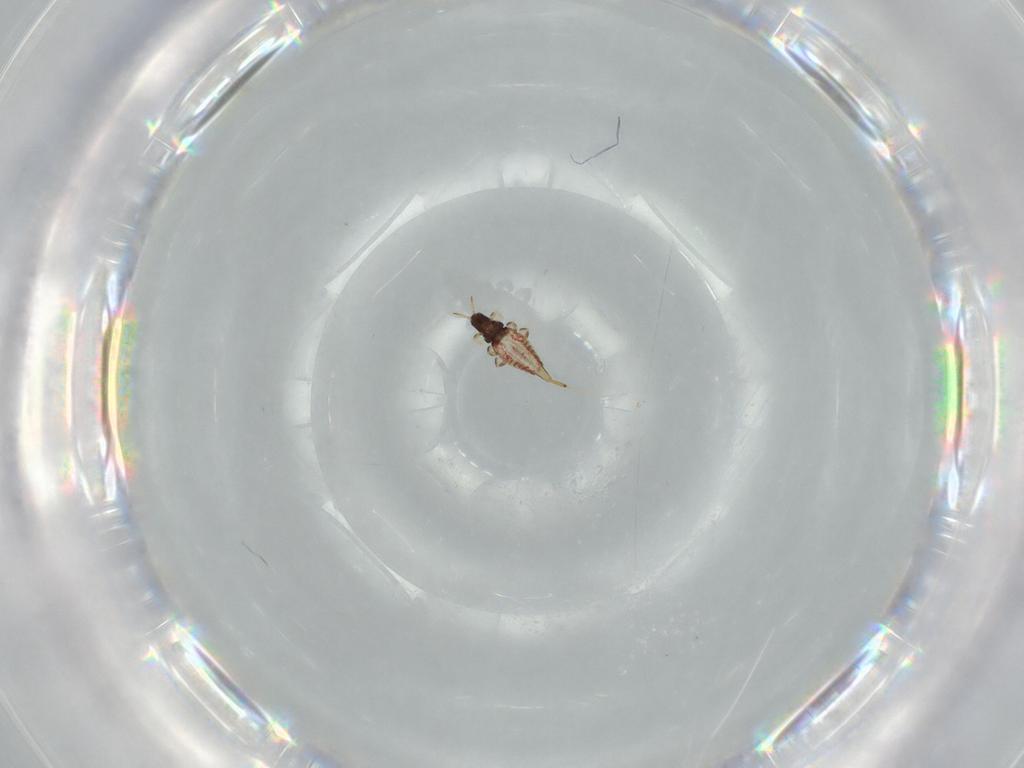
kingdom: Animalia
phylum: Arthropoda
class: Insecta
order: Thysanoptera
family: Phlaeothripidae
